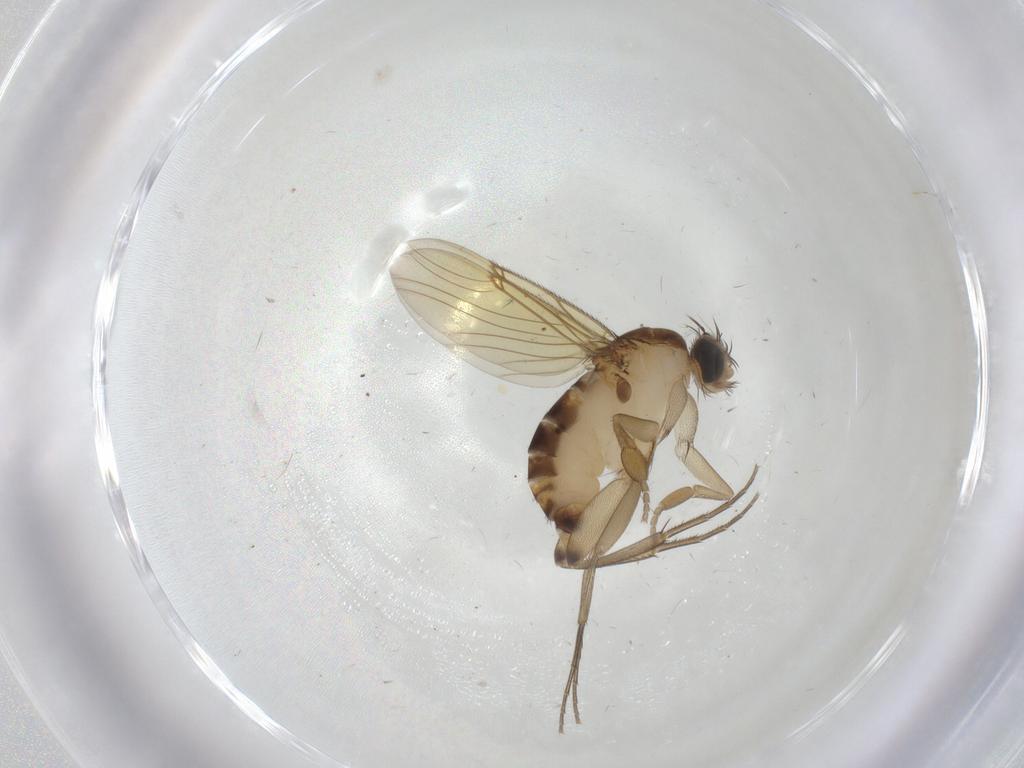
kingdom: Animalia
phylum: Arthropoda
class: Insecta
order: Diptera
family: Phoridae
